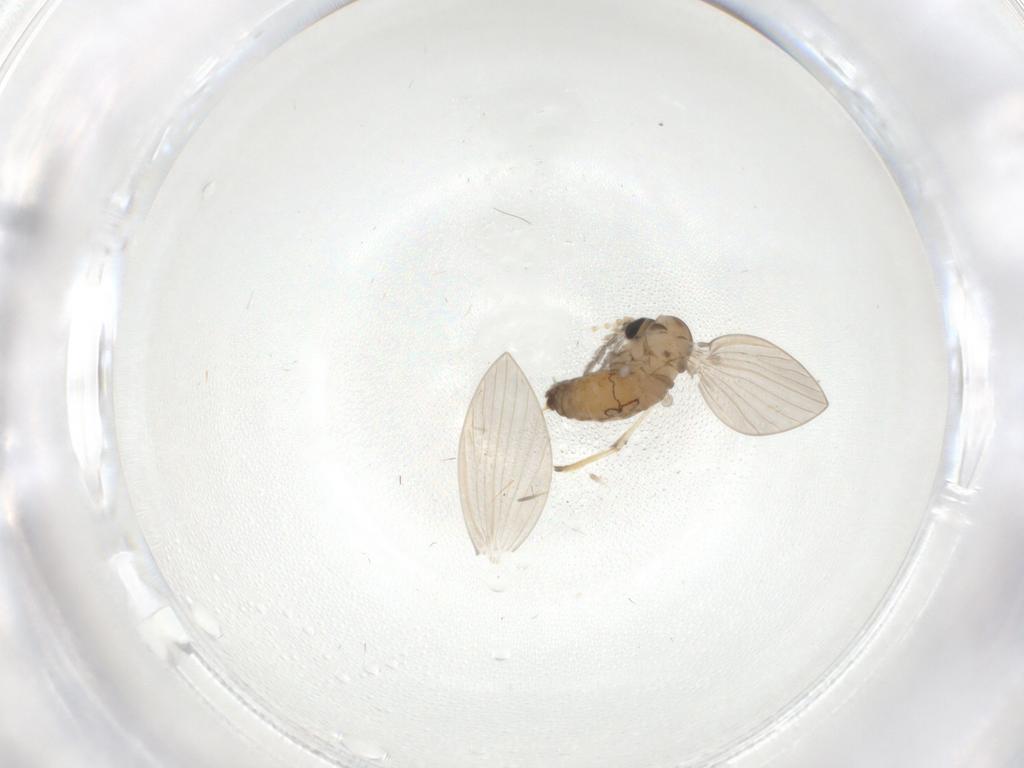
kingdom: Animalia
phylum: Arthropoda
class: Insecta
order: Diptera
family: Psychodidae
